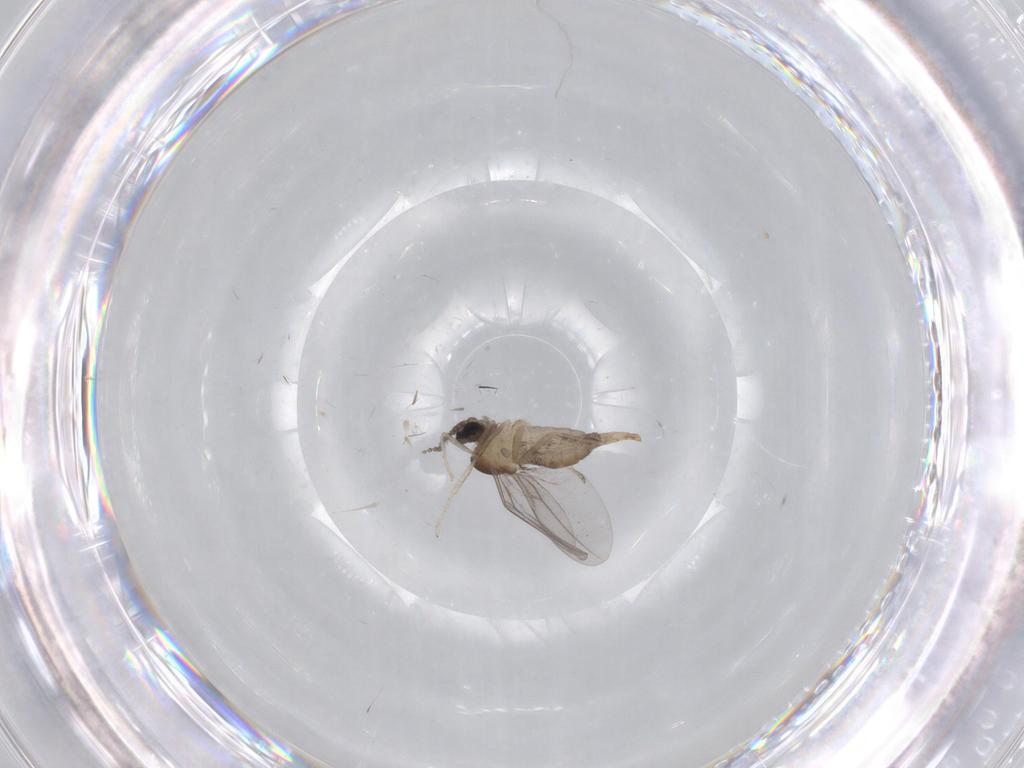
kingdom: Animalia
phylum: Arthropoda
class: Insecta
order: Diptera
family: Cecidomyiidae
